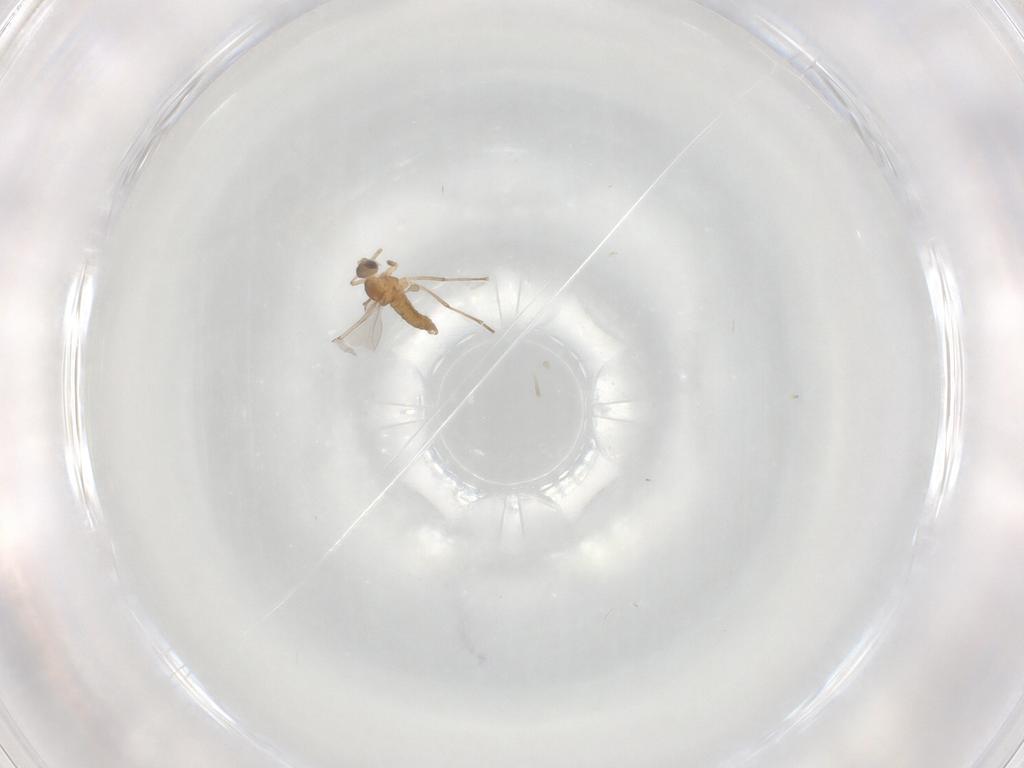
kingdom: Animalia
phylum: Arthropoda
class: Insecta
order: Diptera
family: Cecidomyiidae
